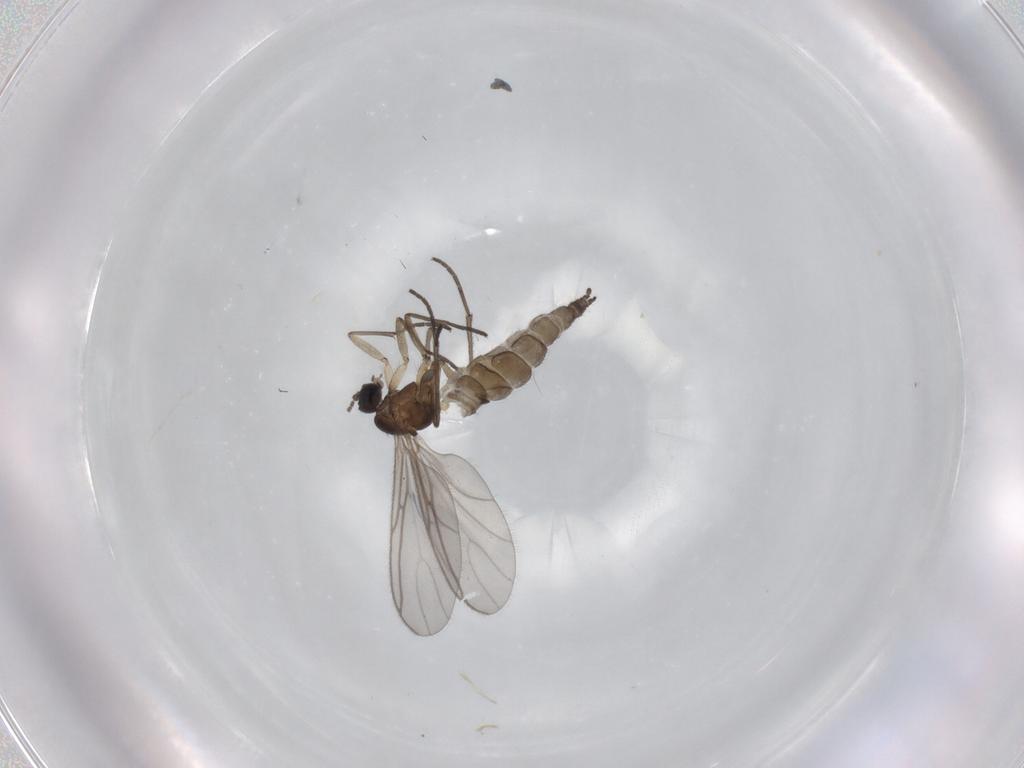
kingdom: Animalia
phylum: Arthropoda
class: Insecta
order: Diptera
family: Sciaridae
